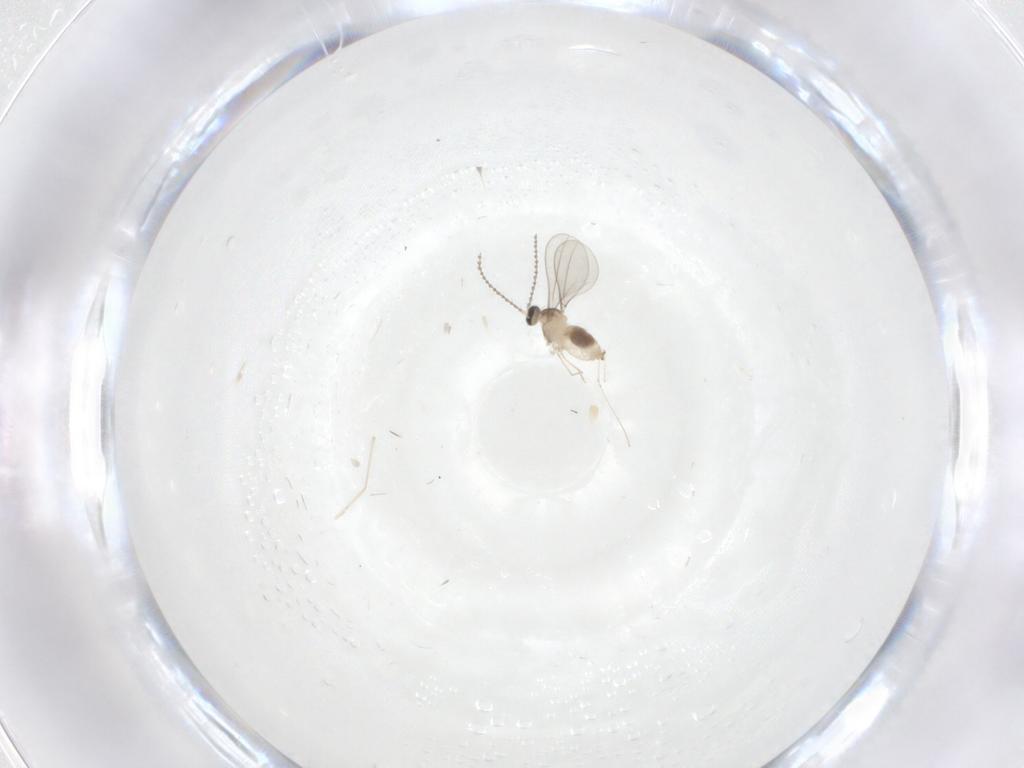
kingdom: Animalia
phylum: Arthropoda
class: Insecta
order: Diptera
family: Cecidomyiidae
